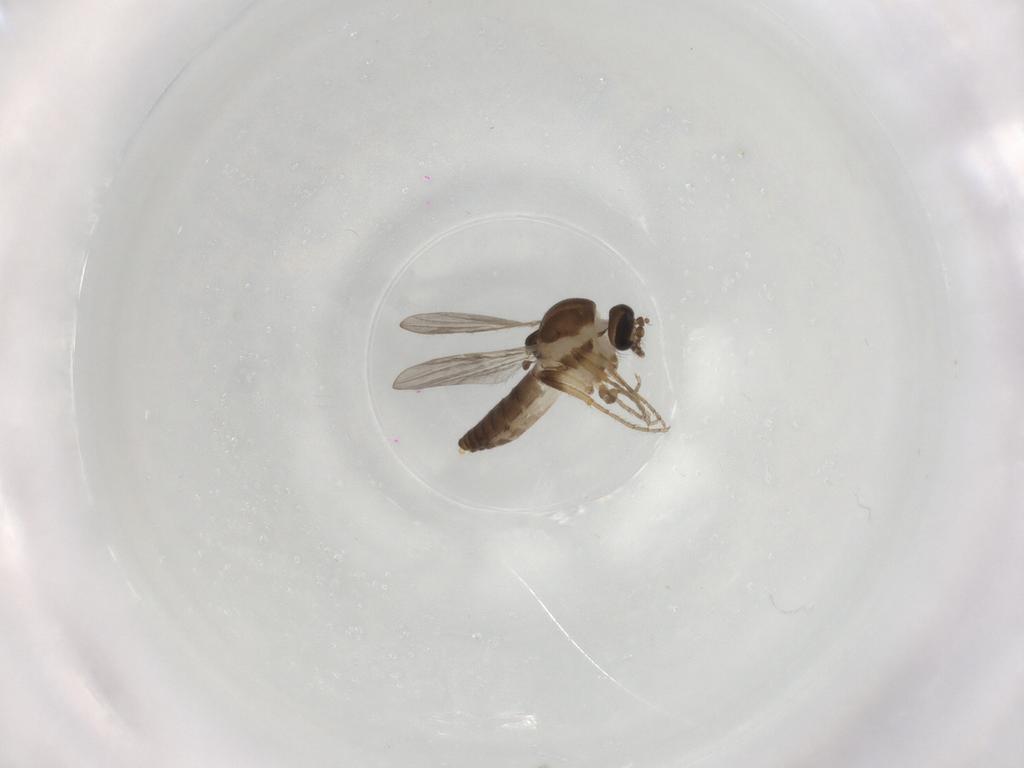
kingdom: Animalia
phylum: Arthropoda
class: Insecta
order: Diptera
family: Ceratopogonidae
